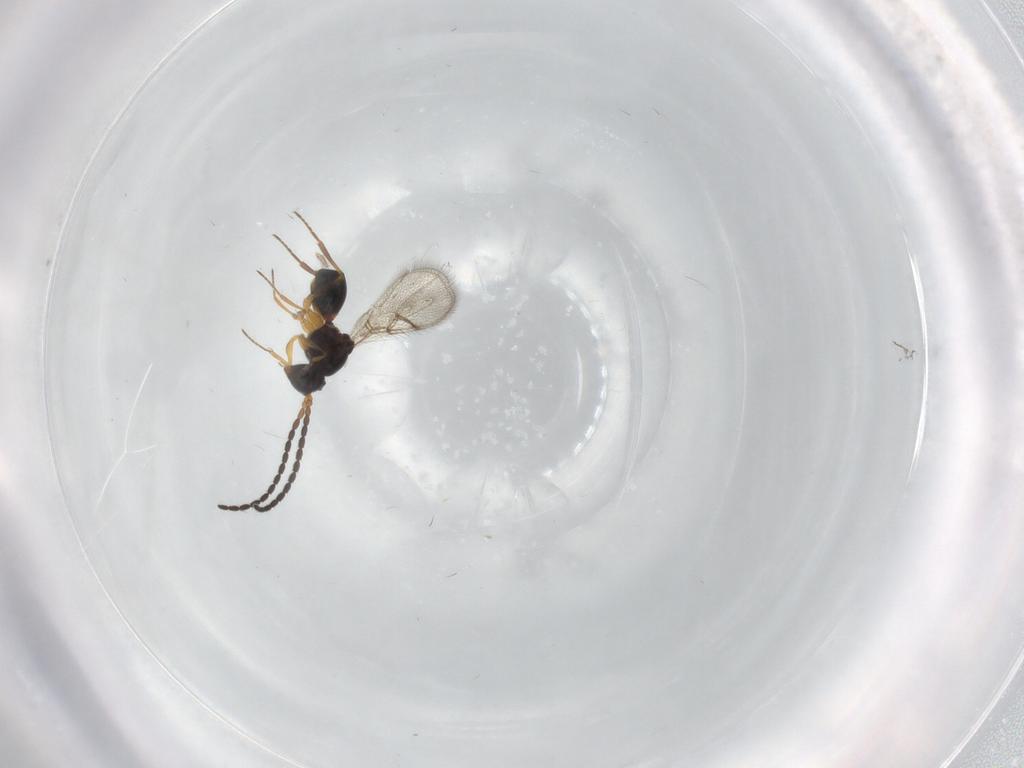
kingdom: Animalia
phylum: Arthropoda
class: Insecta
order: Hymenoptera
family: Figitidae
